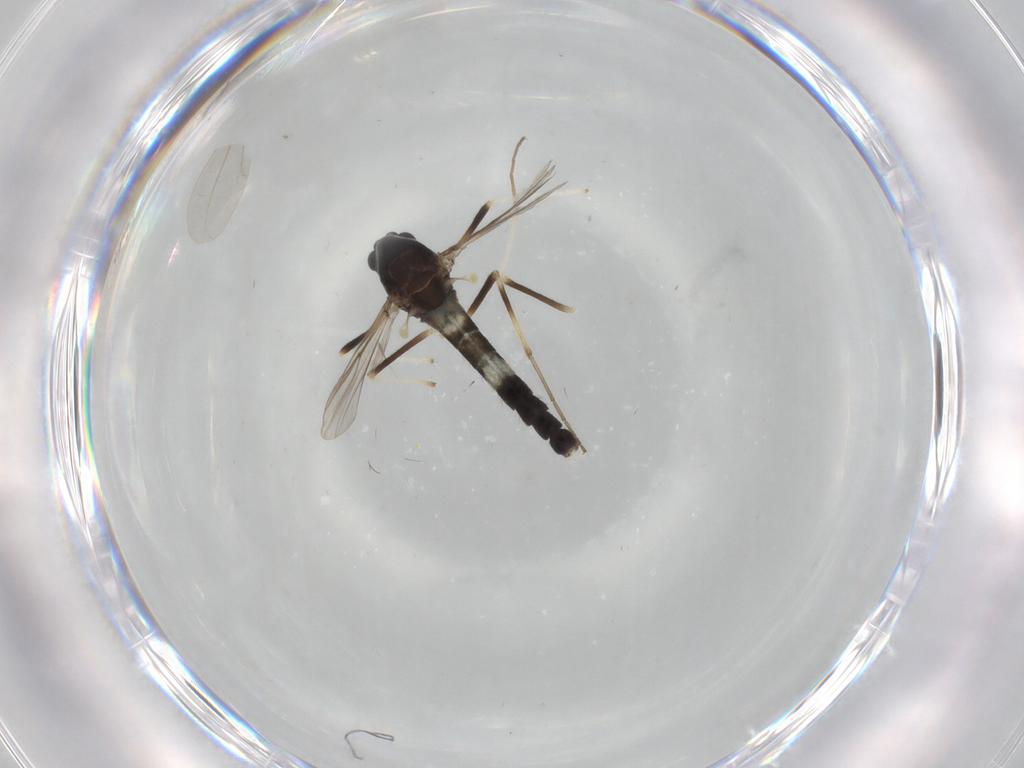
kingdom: Animalia
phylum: Arthropoda
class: Insecta
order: Diptera
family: Chironomidae
